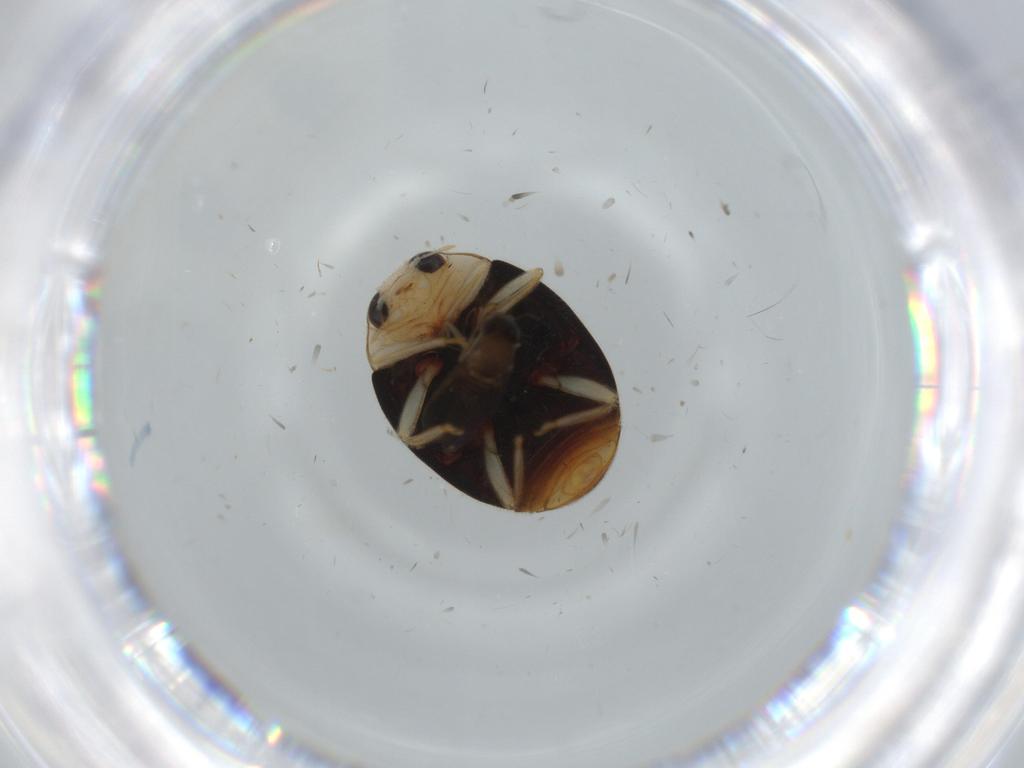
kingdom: Animalia
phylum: Arthropoda
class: Insecta
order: Coleoptera
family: Coccinellidae
